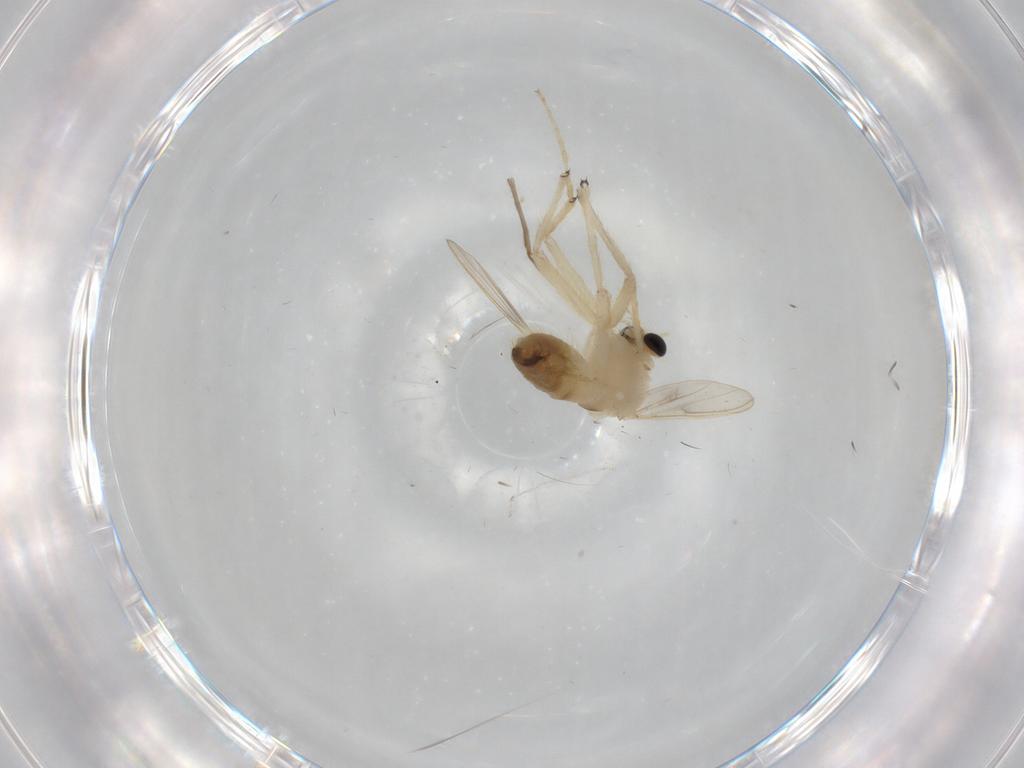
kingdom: Animalia
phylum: Arthropoda
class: Insecta
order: Diptera
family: Chironomidae
